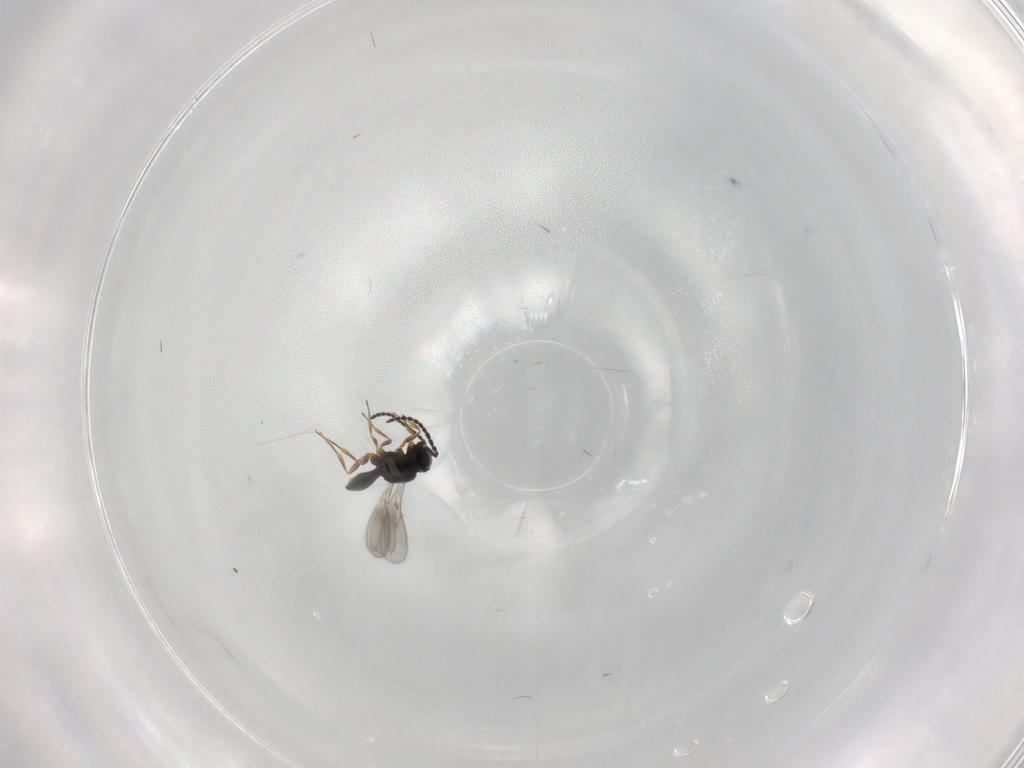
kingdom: Animalia
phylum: Arthropoda
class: Insecta
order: Hymenoptera
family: Scelionidae
